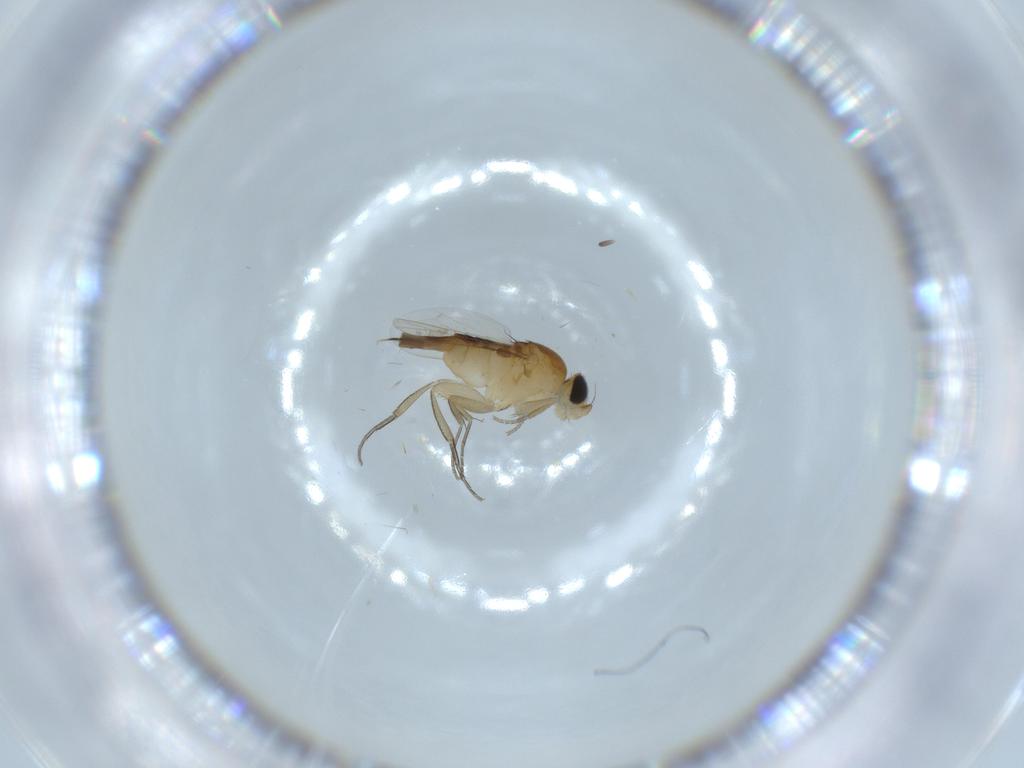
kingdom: Animalia
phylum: Arthropoda
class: Insecta
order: Diptera
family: Phoridae
